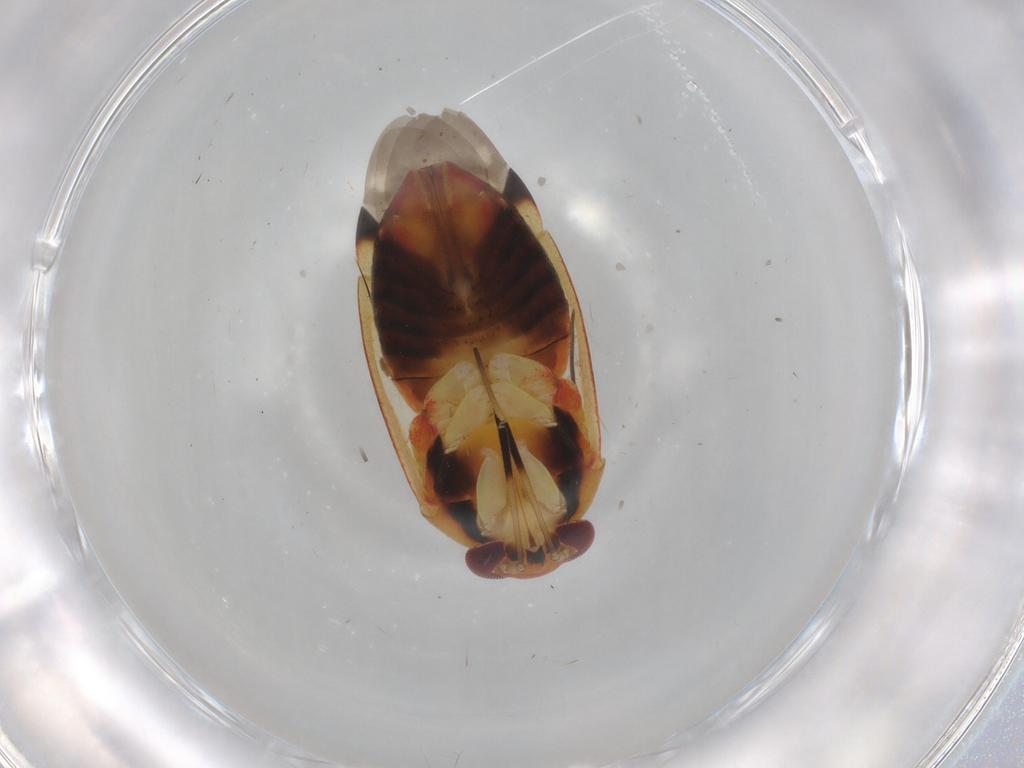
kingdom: Animalia
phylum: Arthropoda
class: Insecta
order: Hemiptera
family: Miridae
